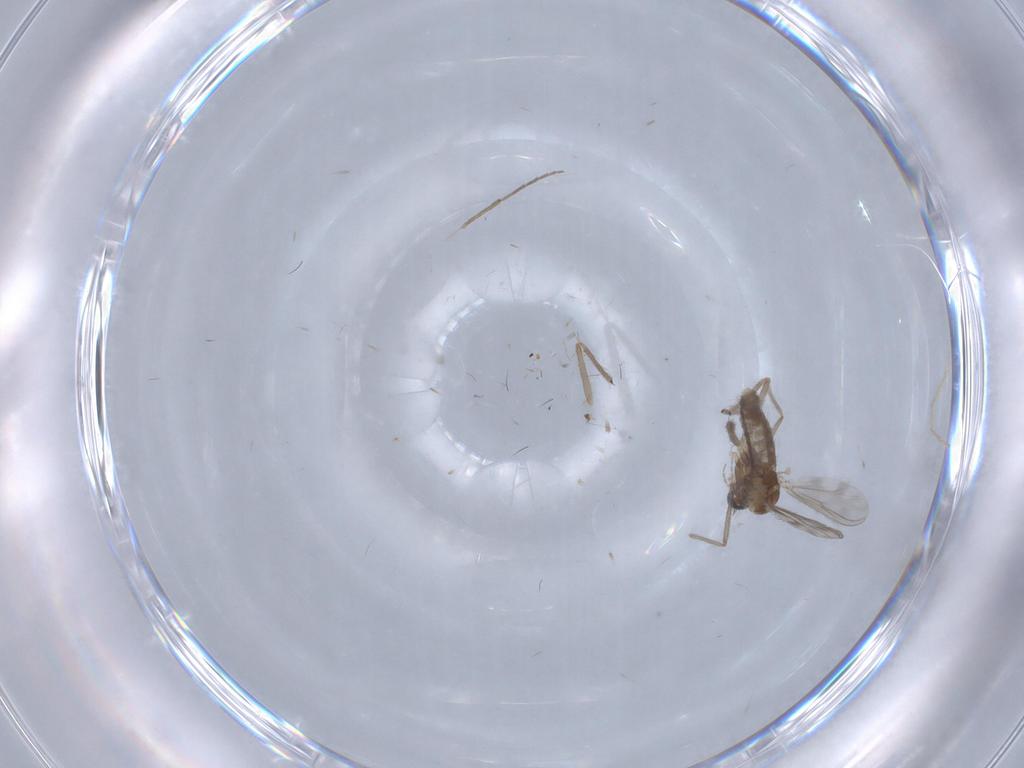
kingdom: Animalia
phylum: Arthropoda
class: Insecta
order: Diptera
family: Chironomidae
